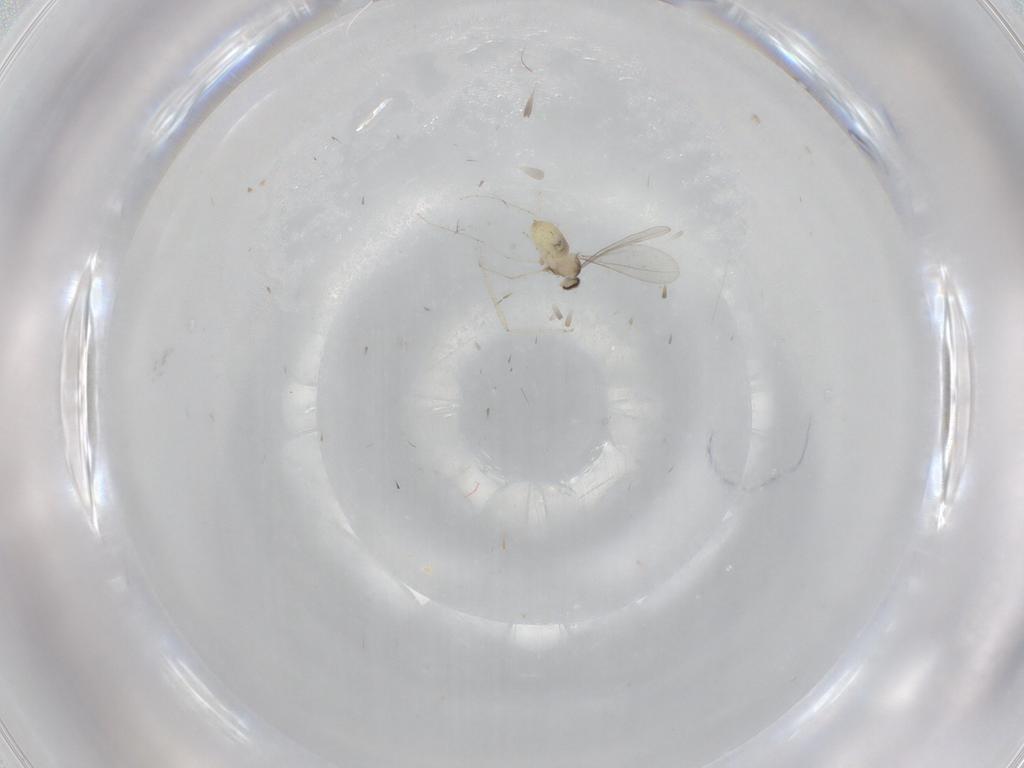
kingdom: Animalia
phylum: Arthropoda
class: Insecta
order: Diptera
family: Cecidomyiidae
